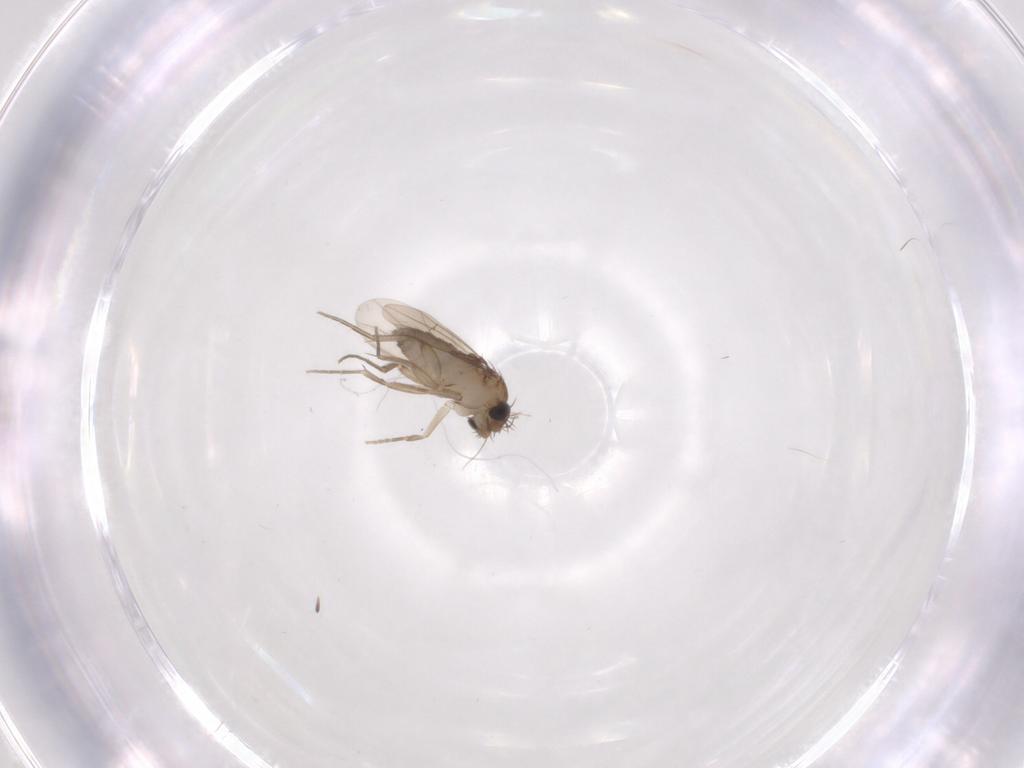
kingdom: Animalia
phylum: Arthropoda
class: Insecta
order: Diptera
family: Phoridae
